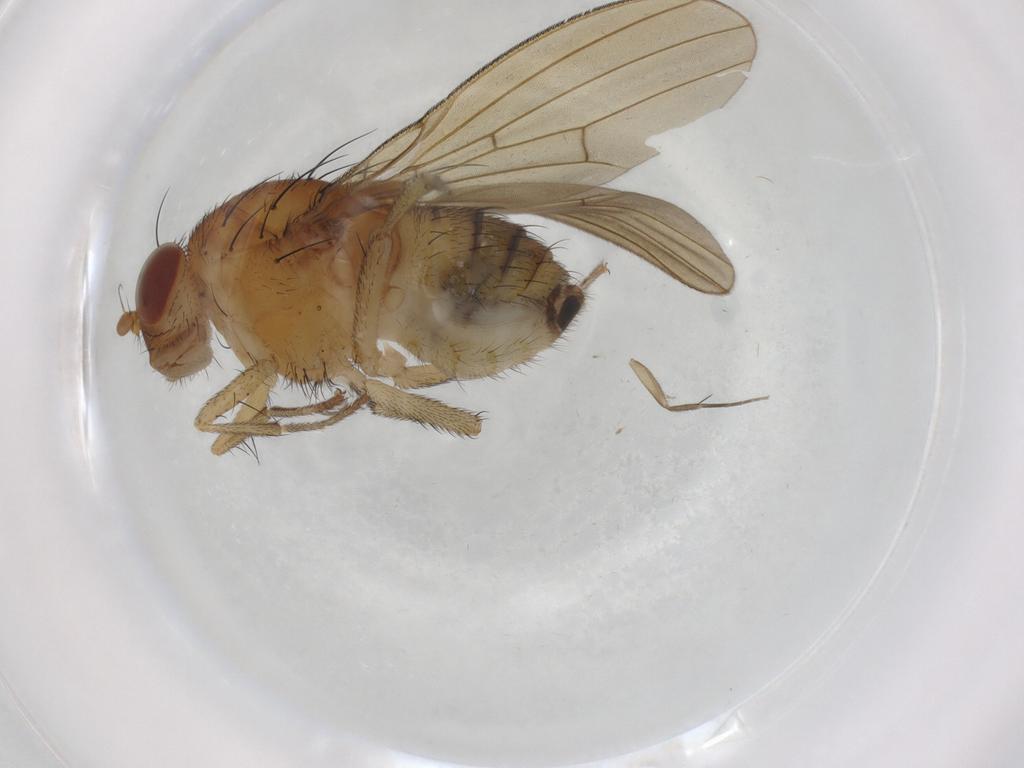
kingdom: Animalia
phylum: Arthropoda
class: Insecta
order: Diptera
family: Chironomidae
